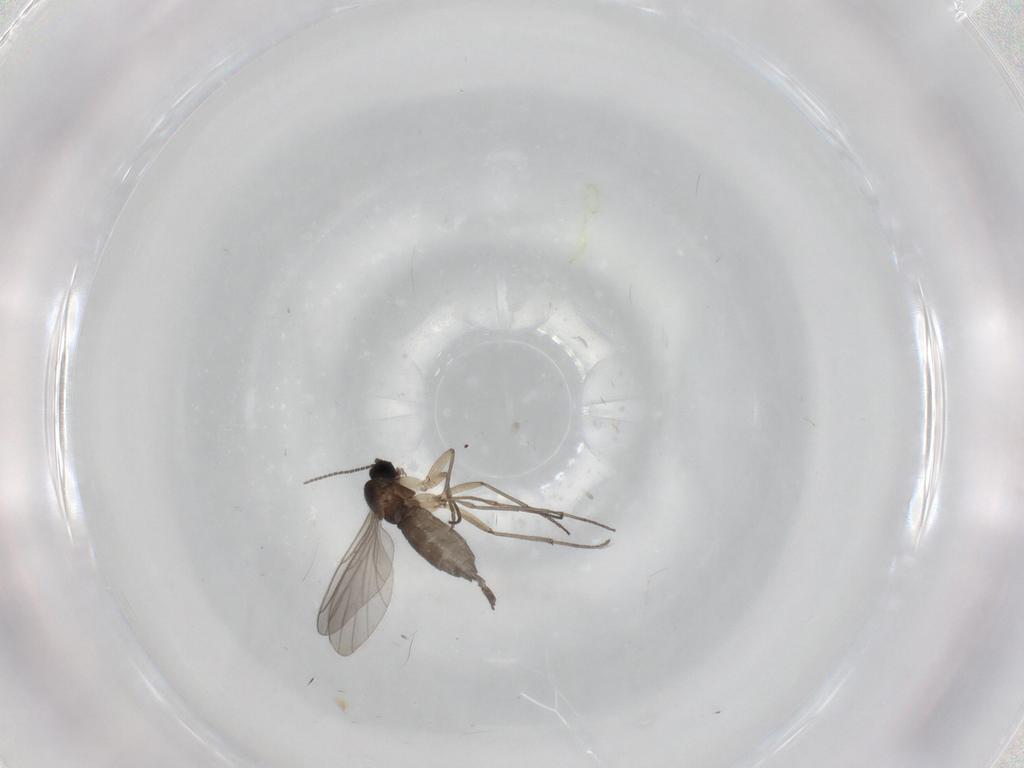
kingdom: Animalia
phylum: Arthropoda
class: Insecta
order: Diptera
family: Sciaridae
